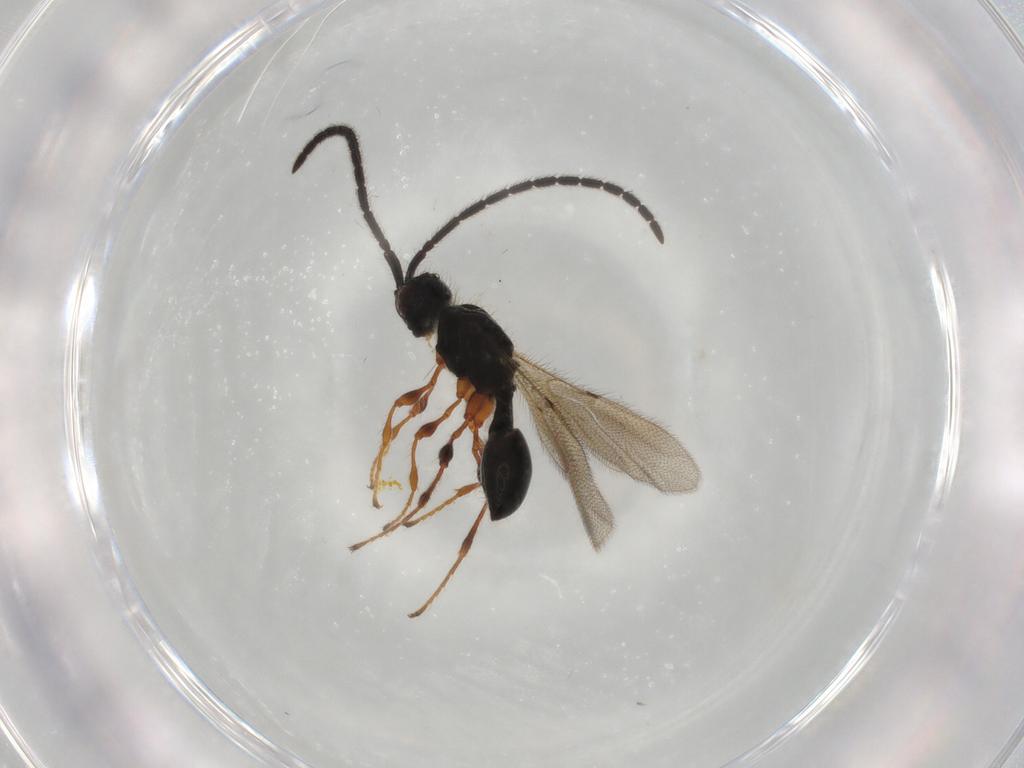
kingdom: Animalia
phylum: Arthropoda
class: Insecta
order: Hymenoptera
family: Diapriidae
